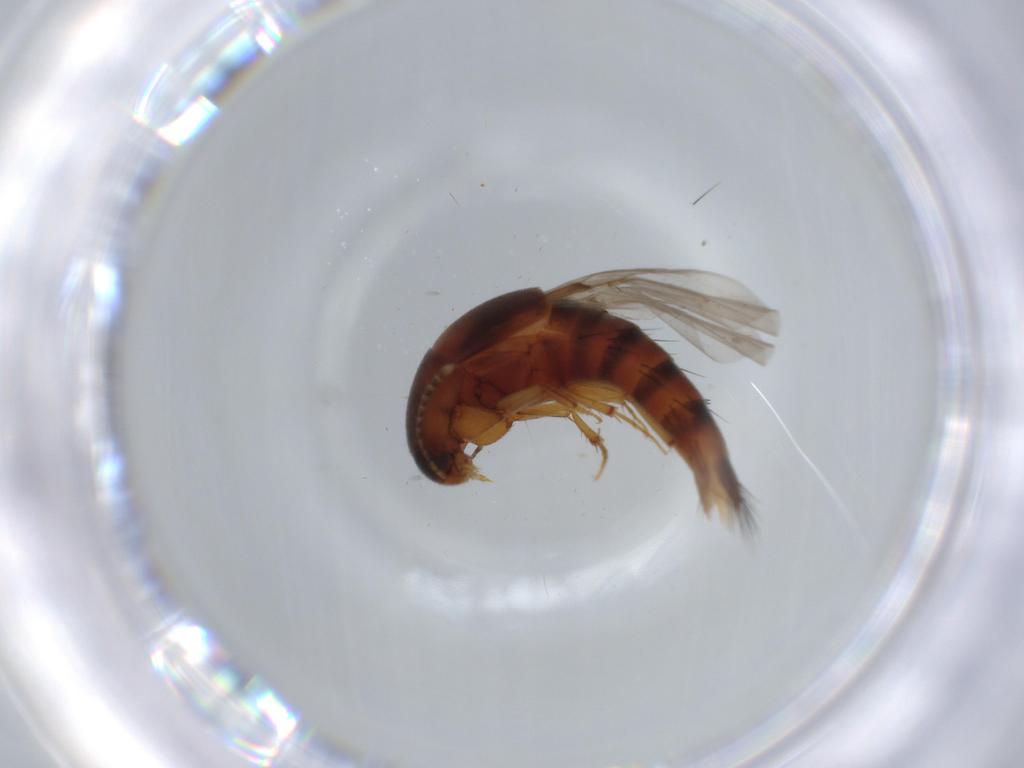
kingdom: Animalia
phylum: Arthropoda
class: Insecta
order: Coleoptera
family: Staphylinidae
